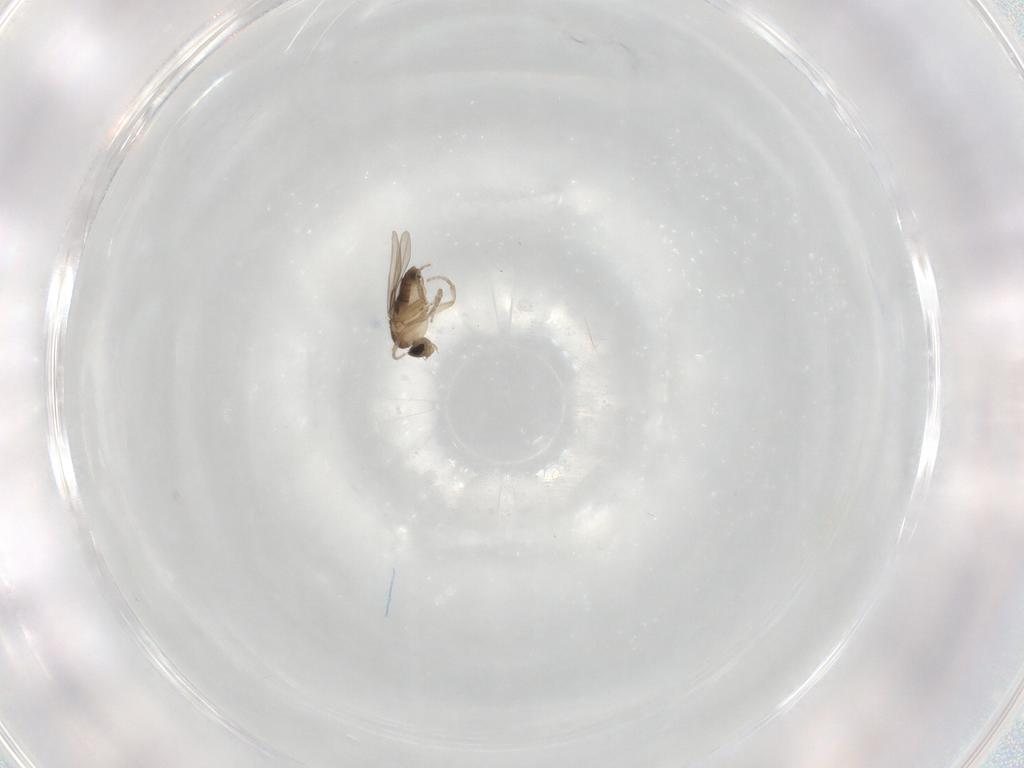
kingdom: Animalia
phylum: Arthropoda
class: Insecta
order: Diptera
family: Phoridae
